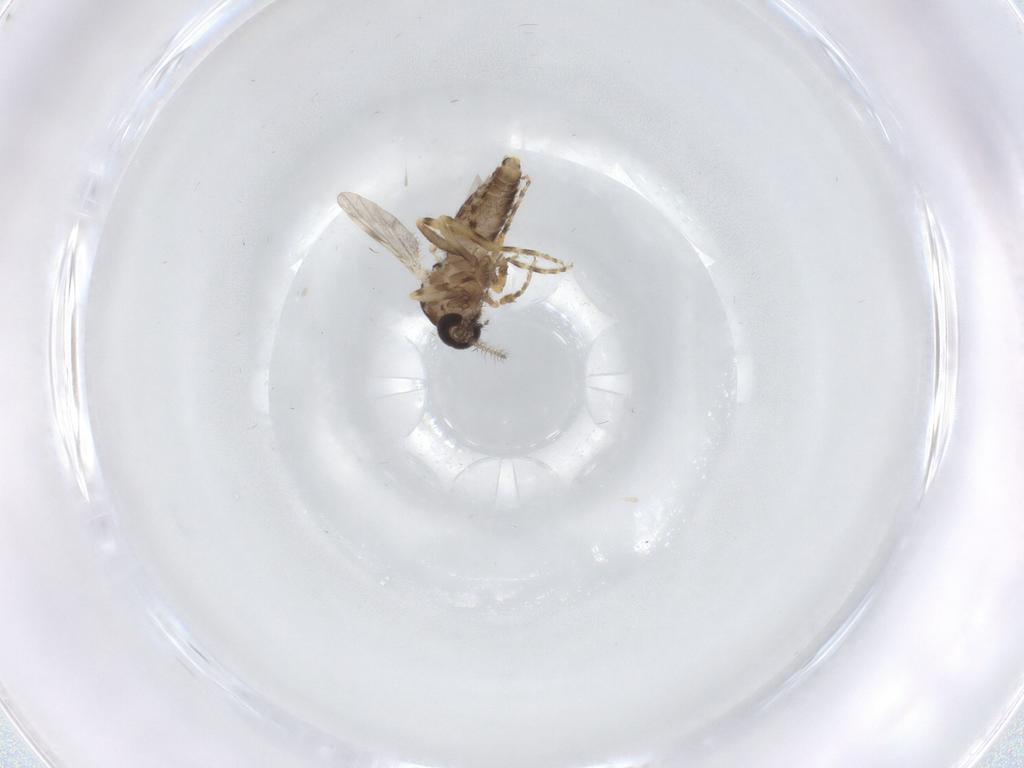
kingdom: Animalia
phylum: Arthropoda
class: Insecta
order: Diptera
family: Ceratopogonidae
